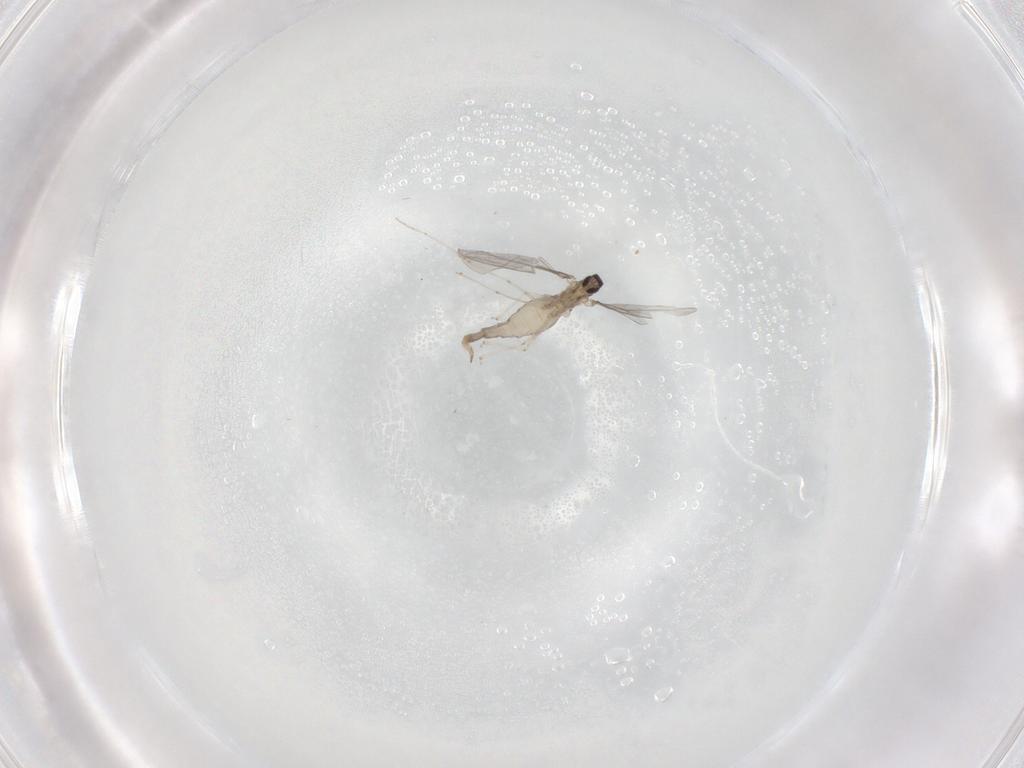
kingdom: Animalia
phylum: Arthropoda
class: Insecta
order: Diptera
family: Cecidomyiidae
